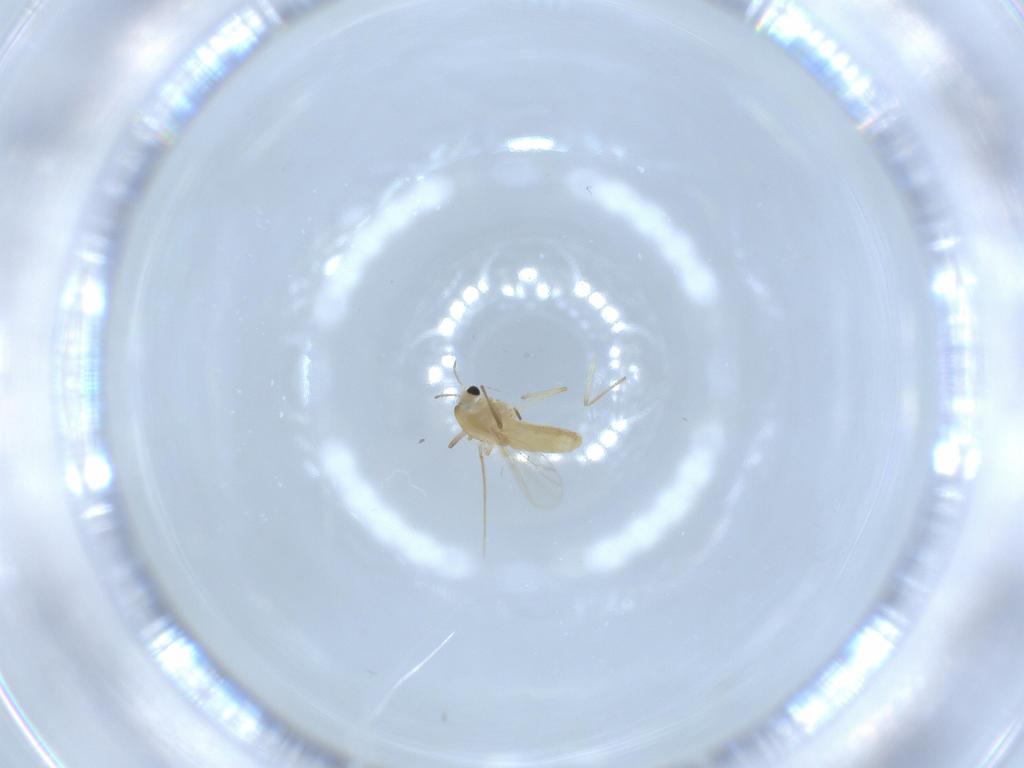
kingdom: Animalia
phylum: Arthropoda
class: Insecta
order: Diptera
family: Chironomidae
